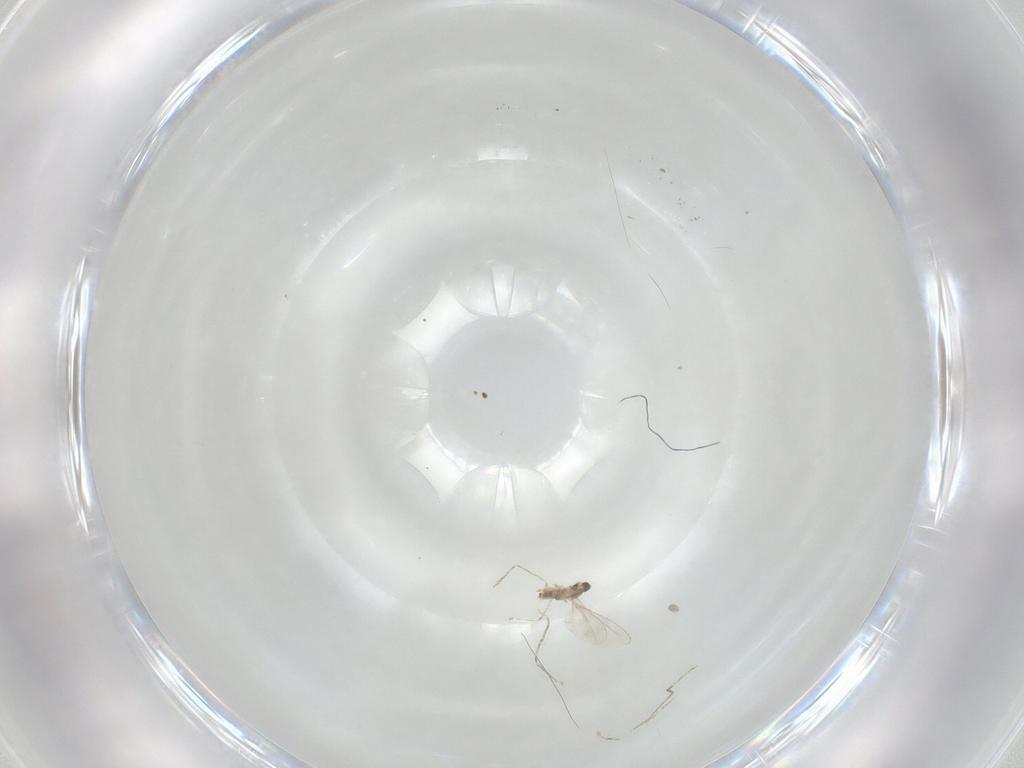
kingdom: Animalia
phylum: Arthropoda
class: Insecta
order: Diptera
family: Cecidomyiidae
